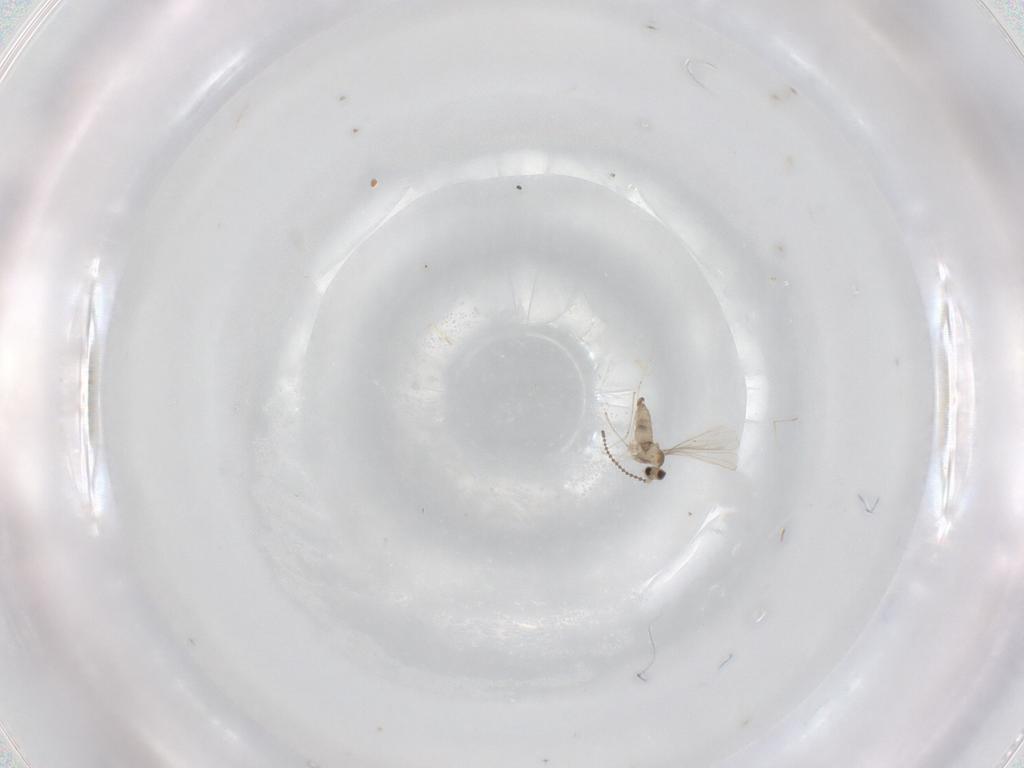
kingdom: Animalia
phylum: Arthropoda
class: Insecta
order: Diptera
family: Cecidomyiidae
